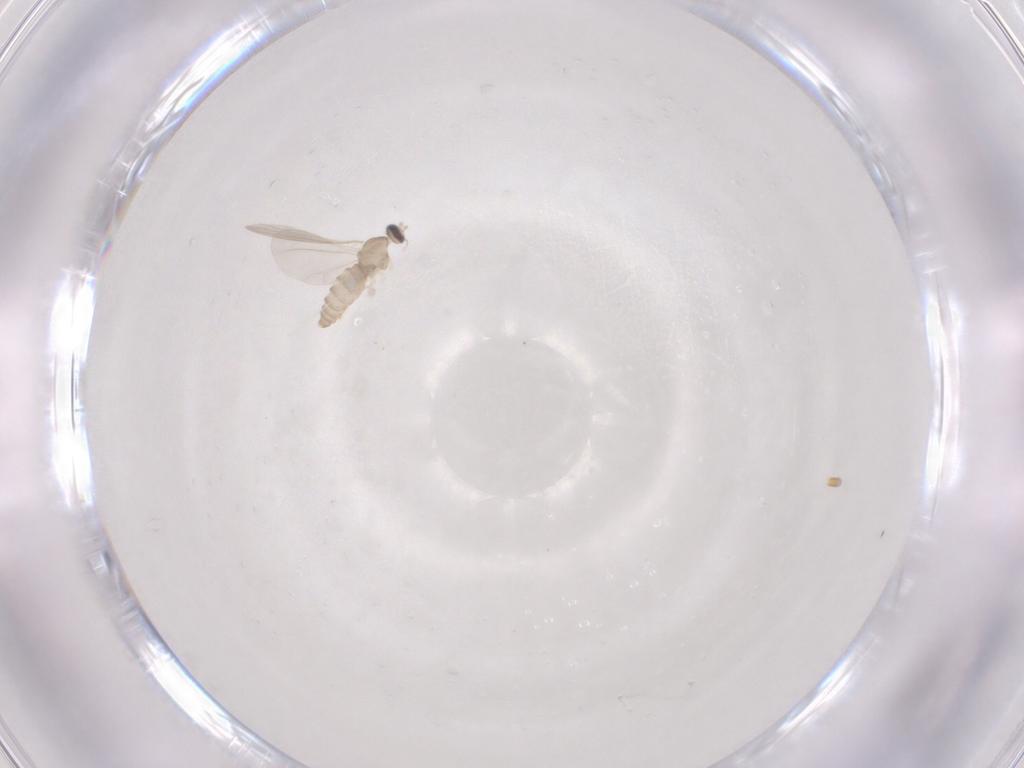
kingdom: Animalia
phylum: Arthropoda
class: Insecta
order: Diptera
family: Cecidomyiidae
